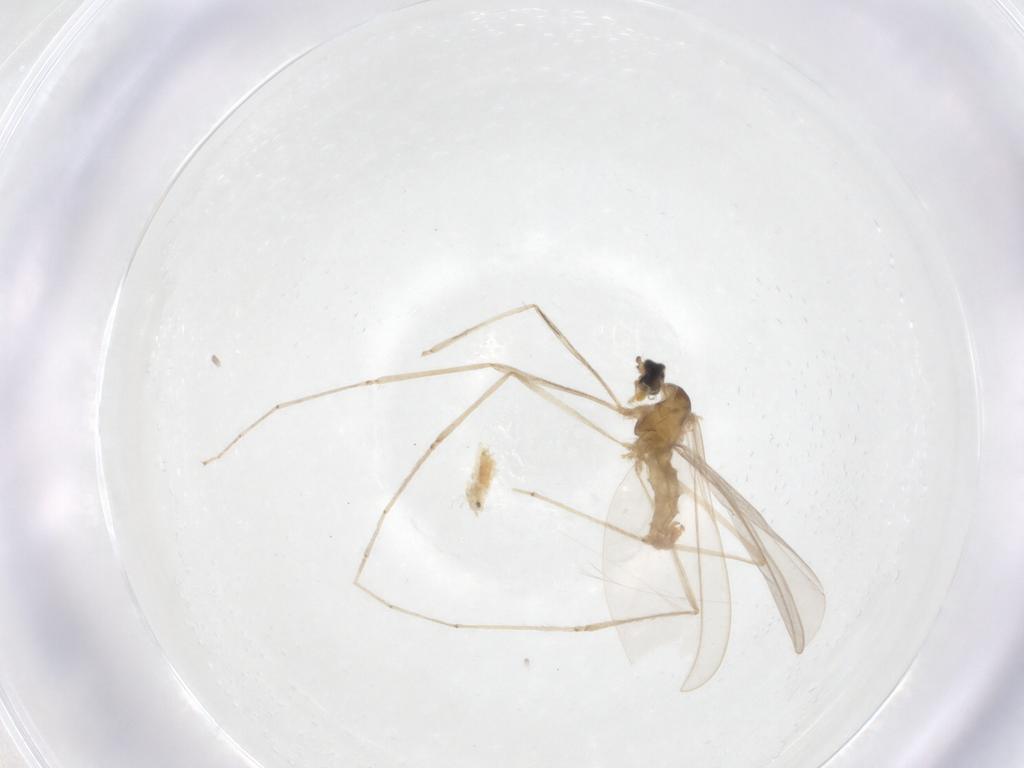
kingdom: Animalia
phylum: Arthropoda
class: Insecta
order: Diptera
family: Cecidomyiidae
